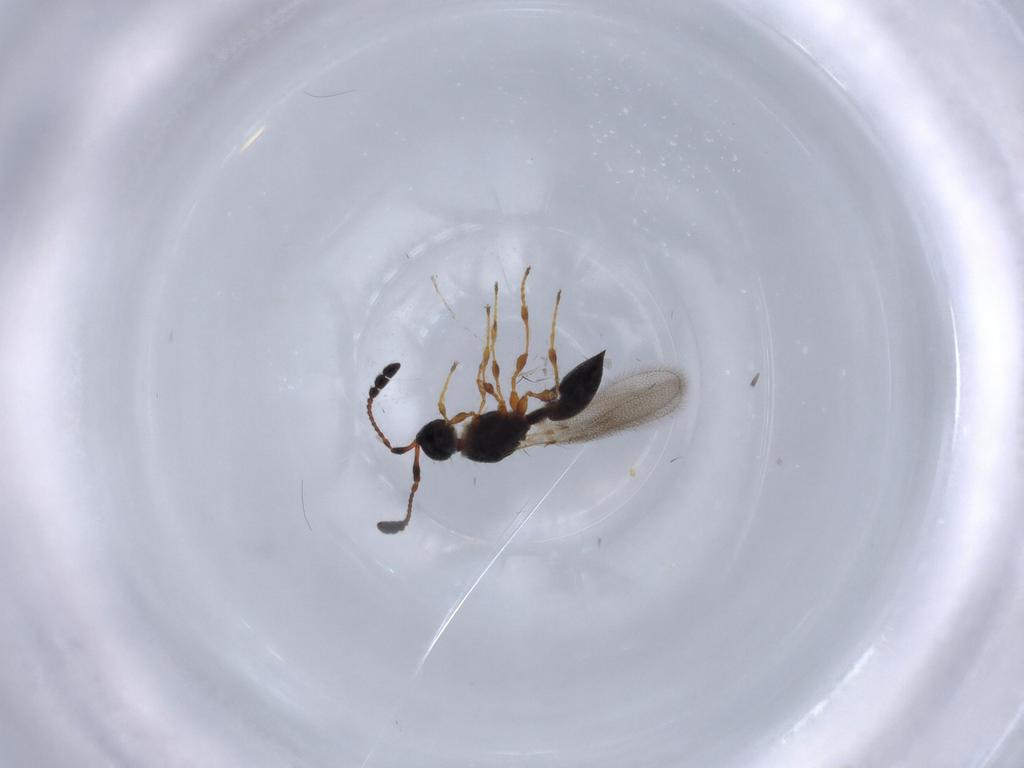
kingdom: Animalia
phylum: Arthropoda
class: Insecta
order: Hymenoptera
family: Diapriidae
